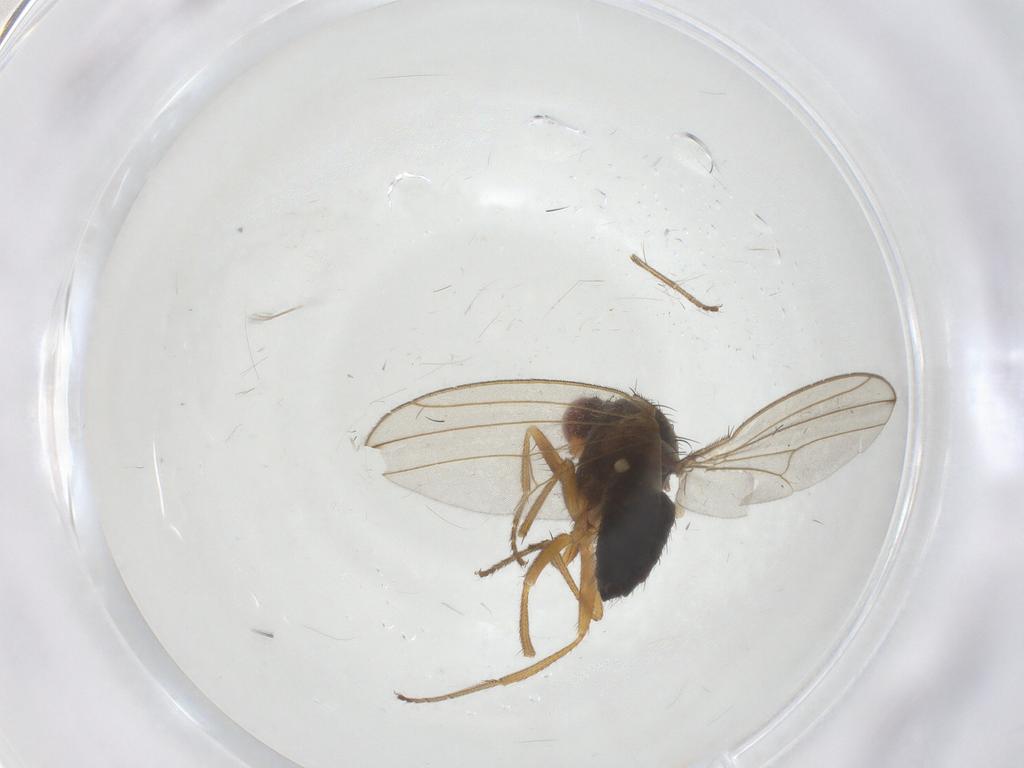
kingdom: Animalia
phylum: Arthropoda
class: Insecta
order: Diptera
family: Drosophilidae
